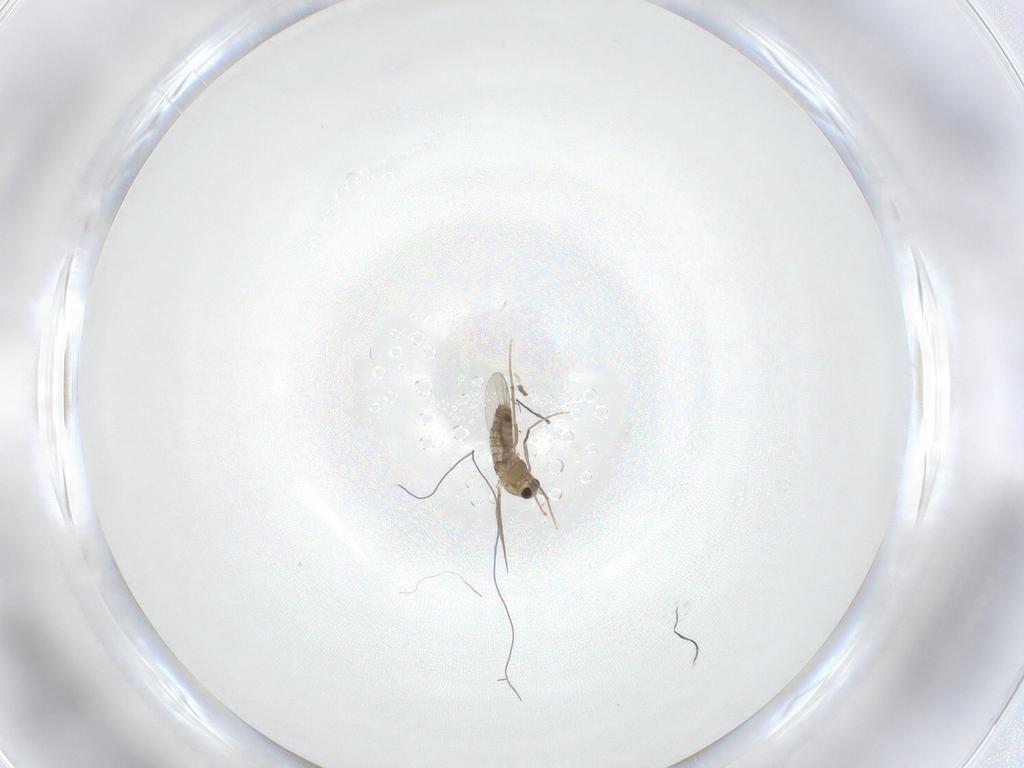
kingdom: Animalia
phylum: Arthropoda
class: Insecta
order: Diptera
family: Chironomidae
